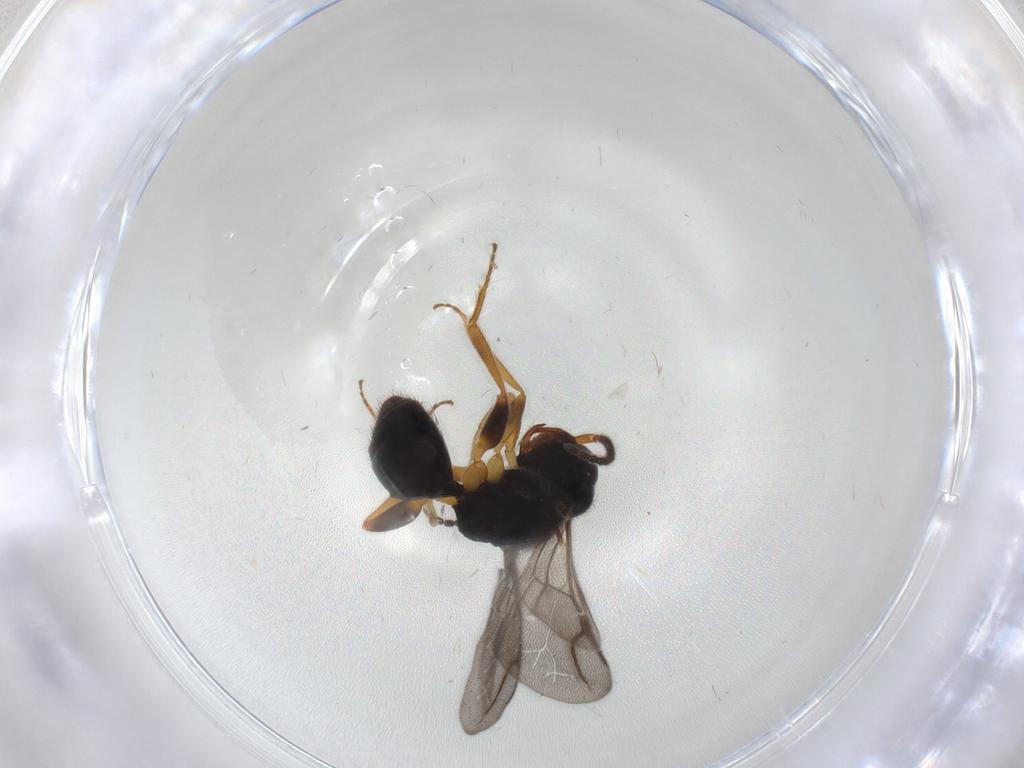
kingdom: Animalia
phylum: Arthropoda
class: Insecta
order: Hymenoptera
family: Bethylidae
